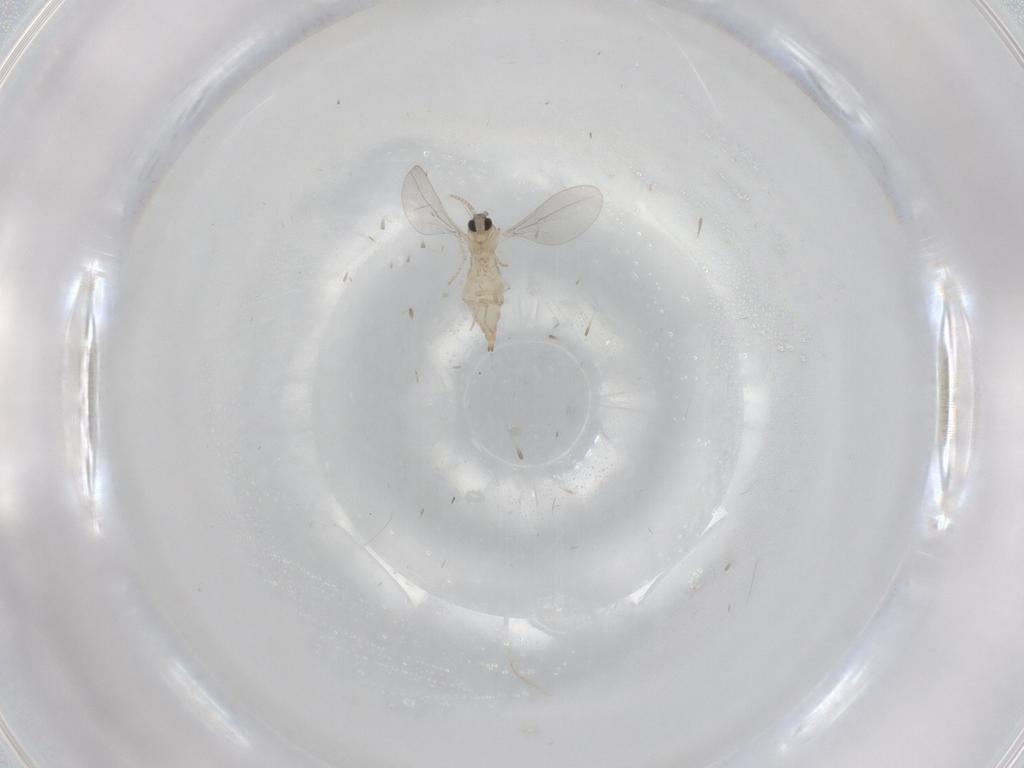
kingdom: Animalia
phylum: Arthropoda
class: Insecta
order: Diptera
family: Cecidomyiidae
